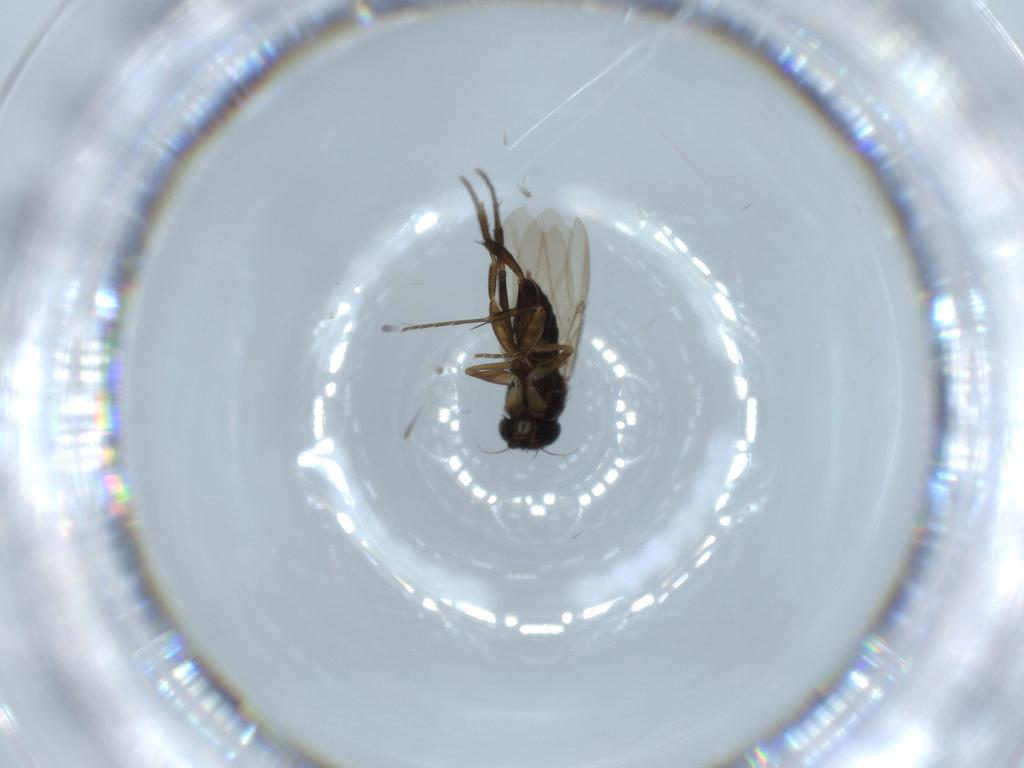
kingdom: Animalia
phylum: Arthropoda
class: Insecta
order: Diptera
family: Phoridae
